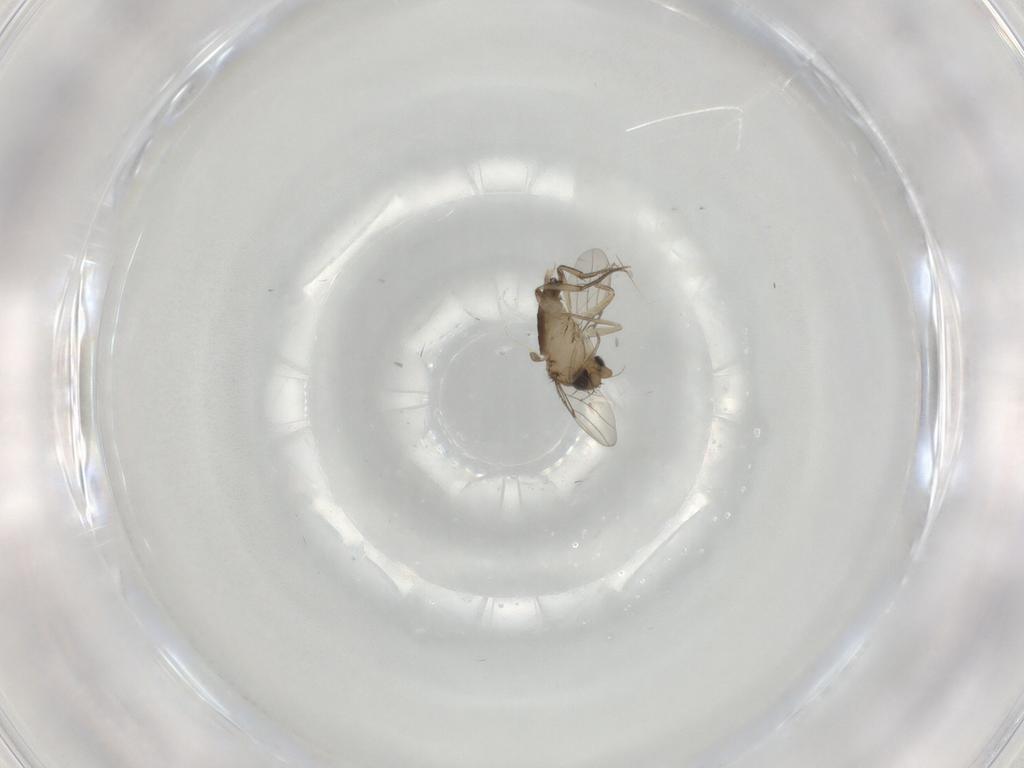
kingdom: Animalia
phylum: Arthropoda
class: Insecta
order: Diptera
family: Phoridae
